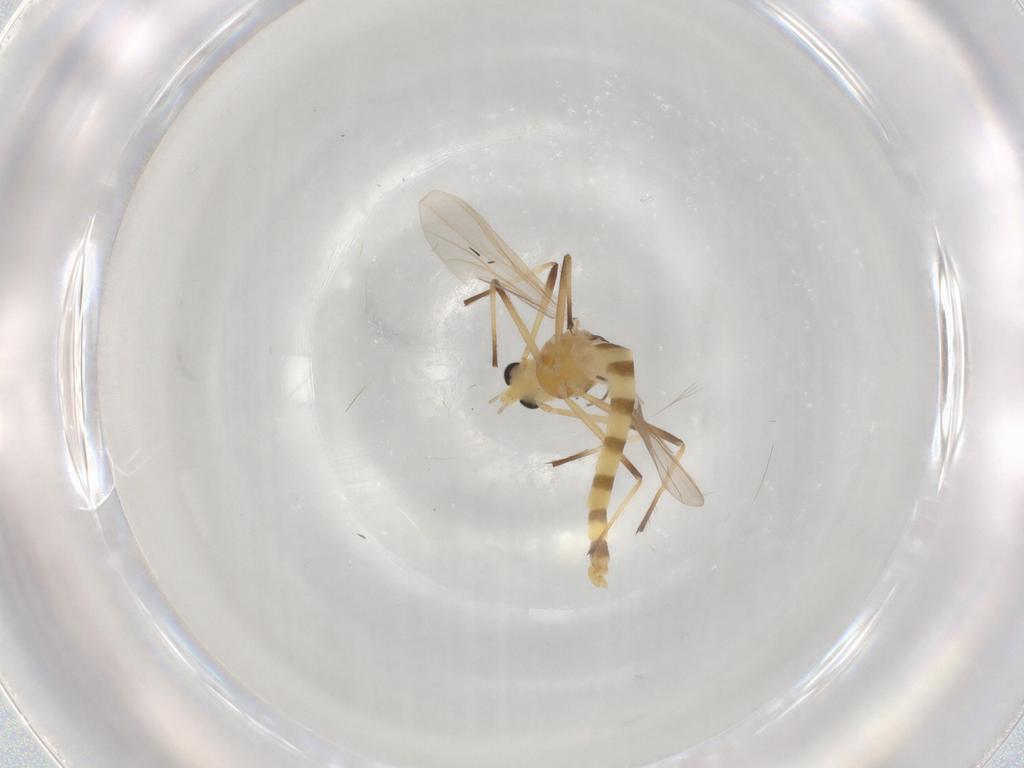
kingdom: Animalia
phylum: Arthropoda
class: Insecta
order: Diptera
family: Chironomidae
